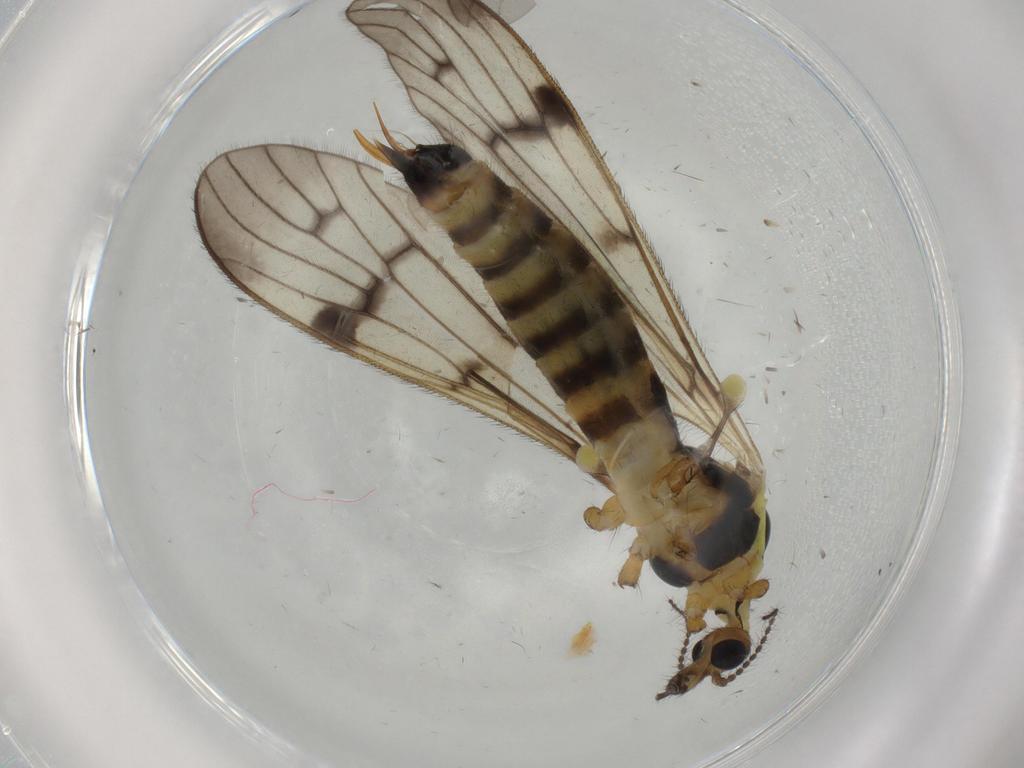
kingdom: Animalia
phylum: Arthropoda
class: Insecta
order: Diptera
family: Limoniidae
